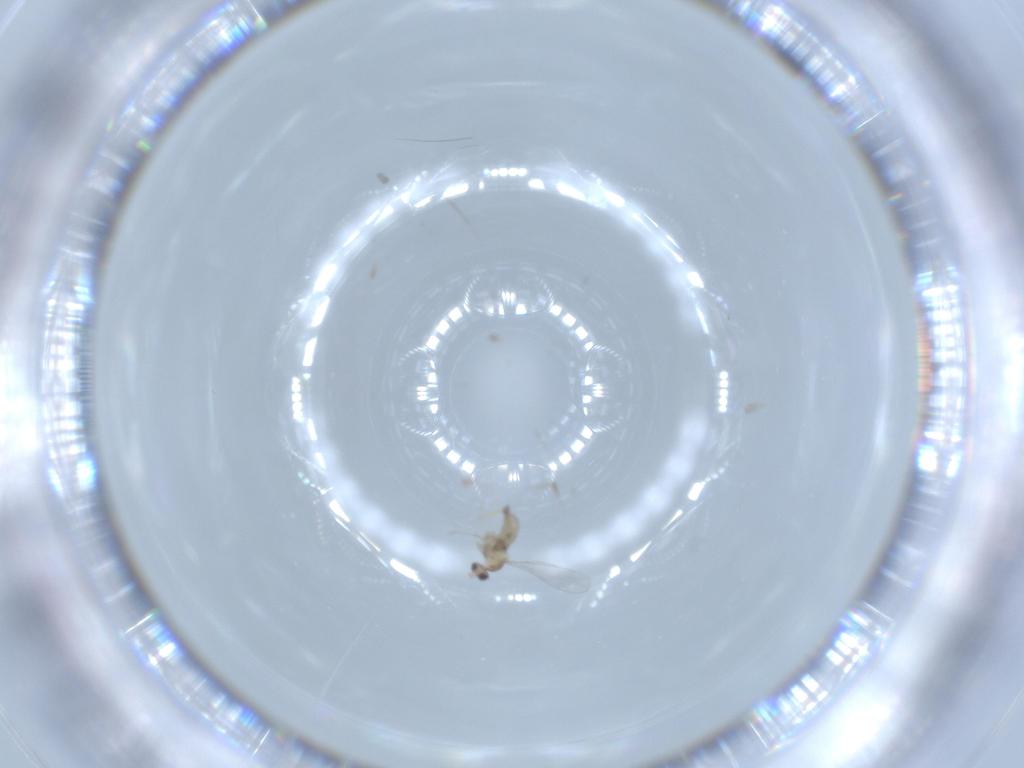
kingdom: Animalia
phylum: Arthropoda
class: Insecta
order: Diptera
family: Cecidomyiidae
